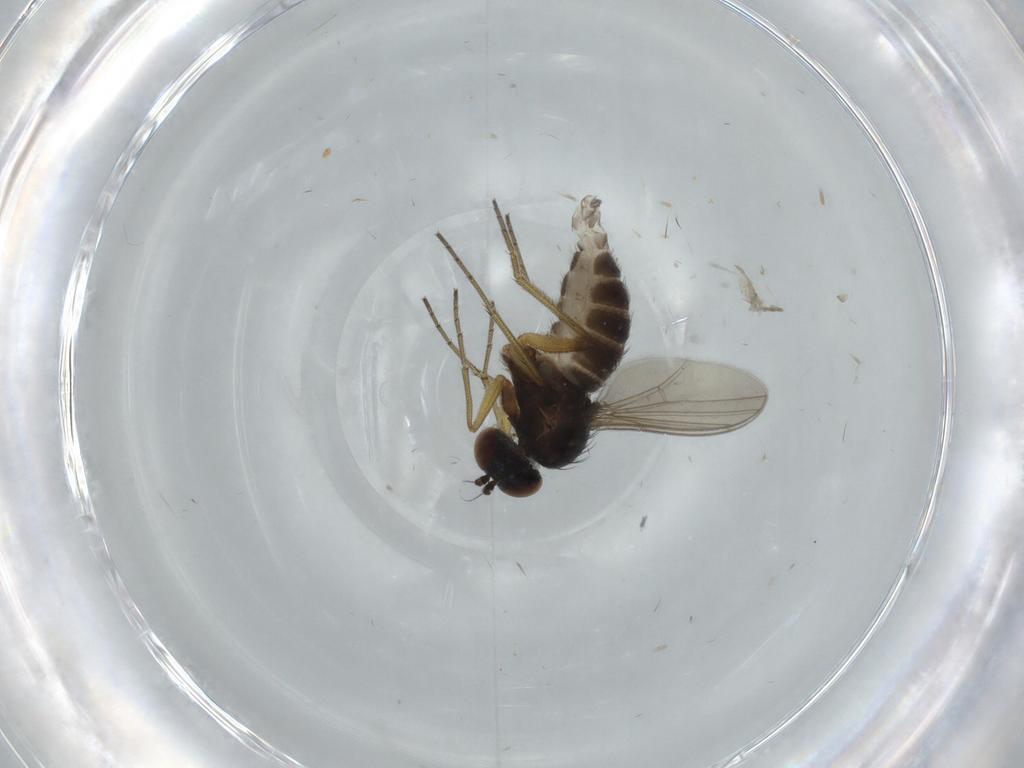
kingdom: Animalia
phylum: Arthropoda
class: Insecta
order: Diptera
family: Dolichopodidae
